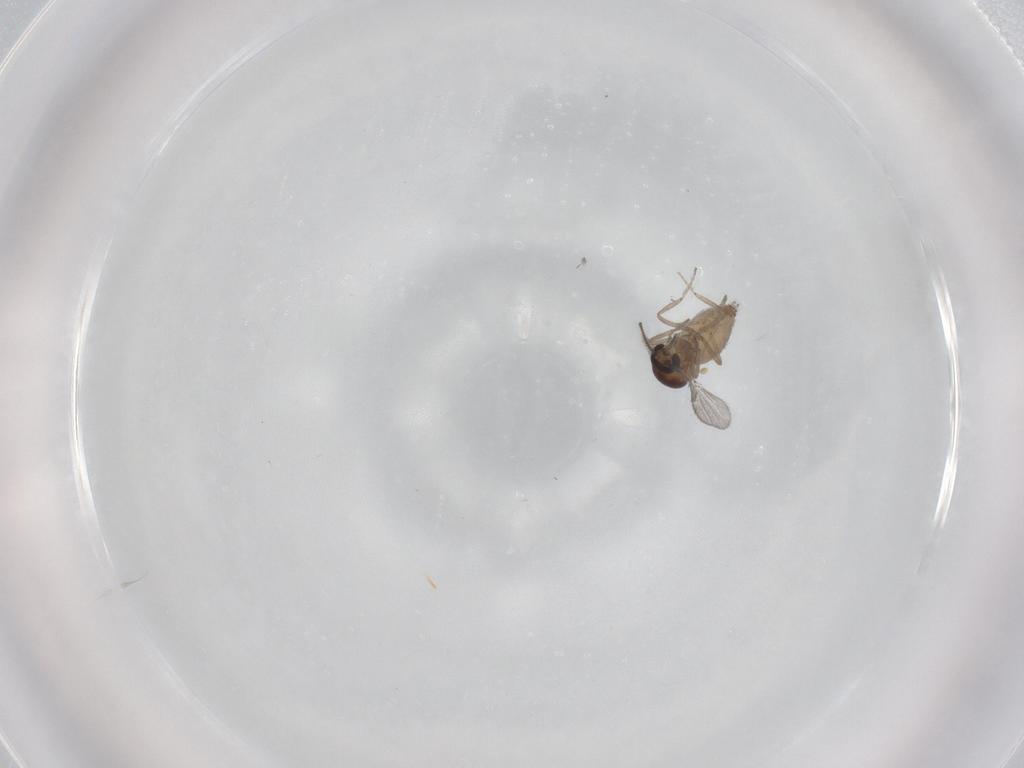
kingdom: Animalia
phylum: Arthropoda
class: Insecta
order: Diptera
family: Ceratopogonidae
